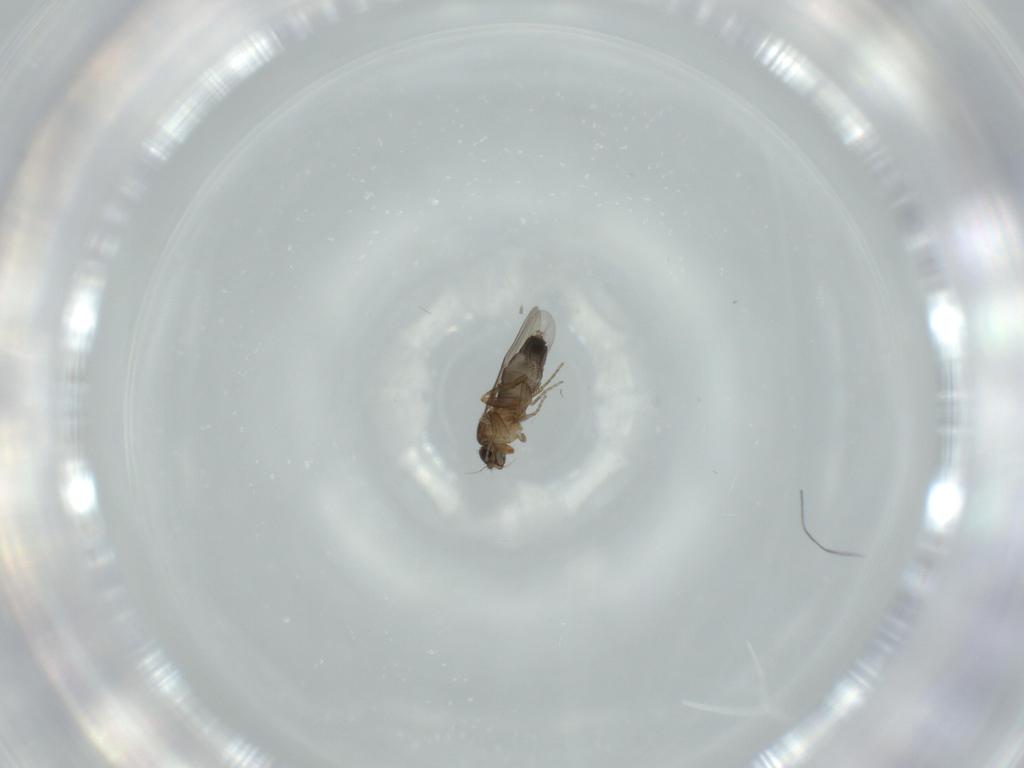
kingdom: Animalia
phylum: Arthropoda
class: Insecta
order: Diptera
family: Phoridae
